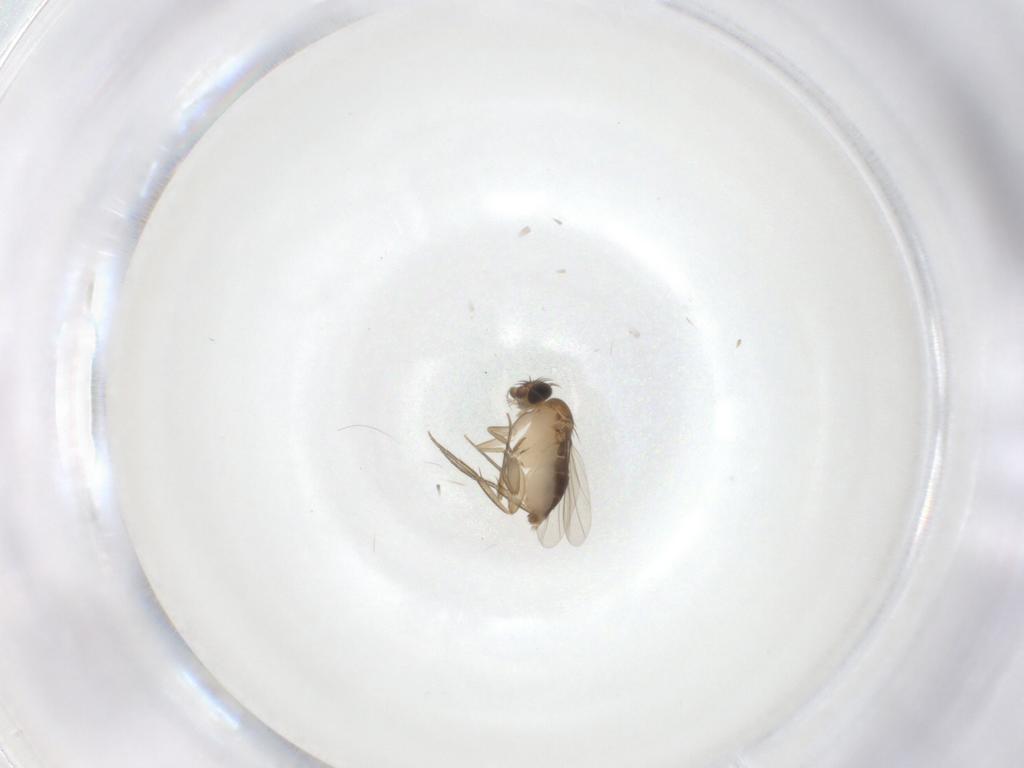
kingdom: Animalia
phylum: Arthropoda
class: Insecta
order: Diptera
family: Phoridae
